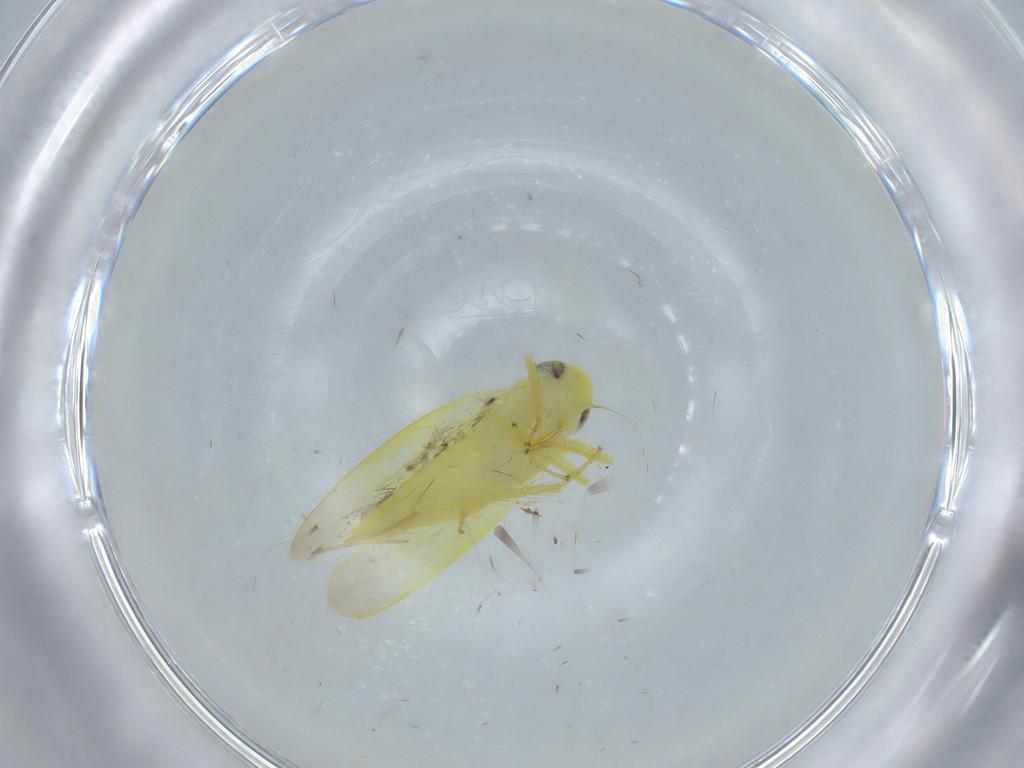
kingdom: Animalia
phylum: Arthropoda
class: Insecta
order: Hemiptera
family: Cicadellidae
